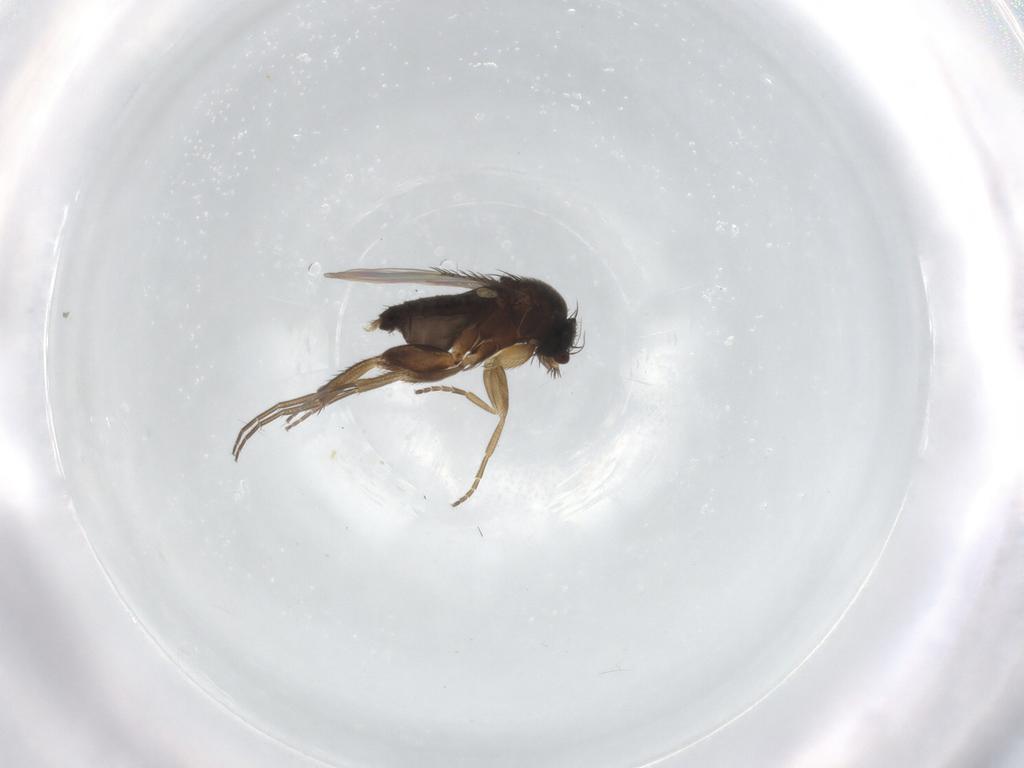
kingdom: Animalia
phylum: Arthropoda
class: Insecta
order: Diptera
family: Phoridae
